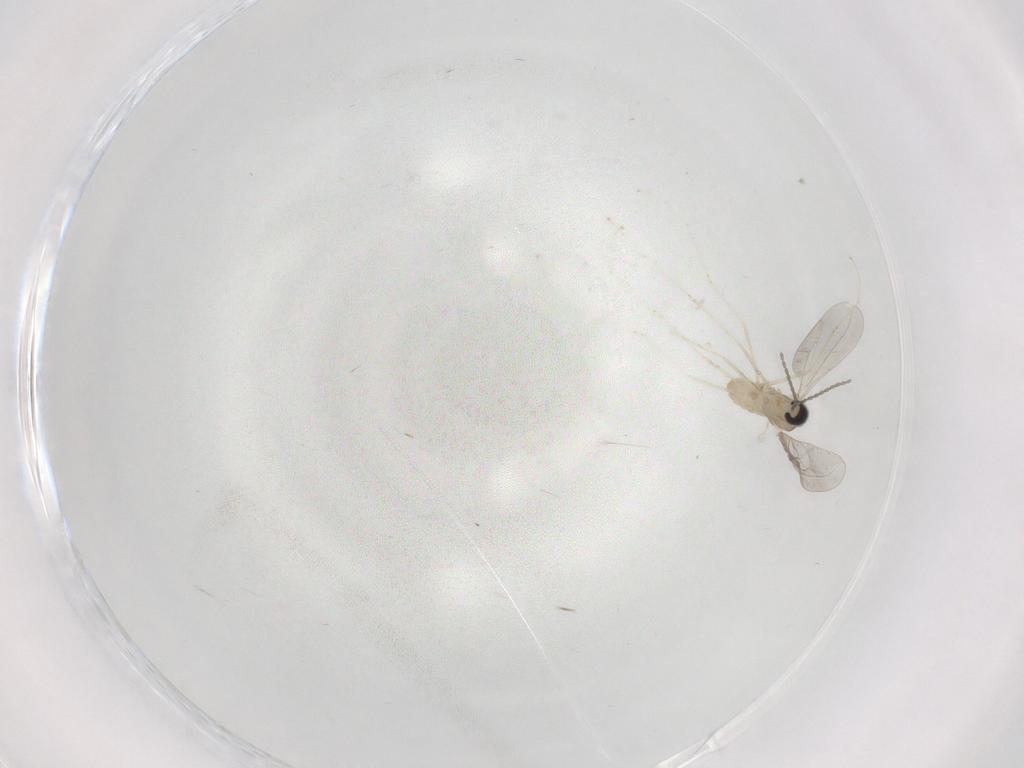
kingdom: Animalia
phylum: Arthropoda
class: Insecta
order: Diptera
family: Cecidomyiidae
